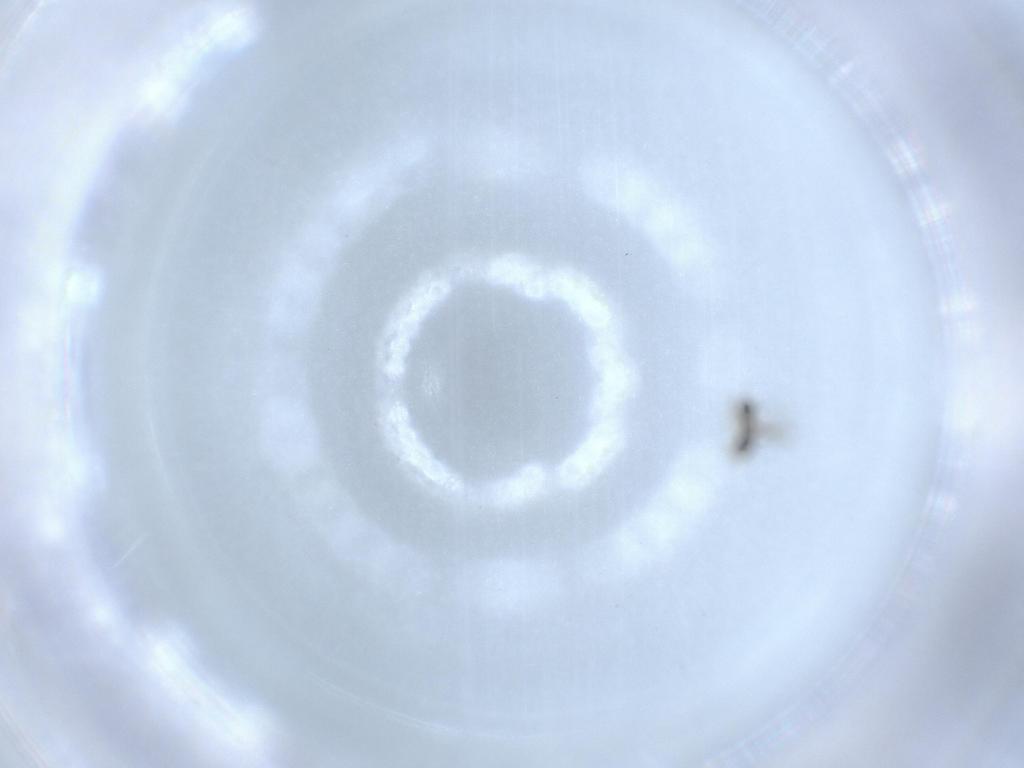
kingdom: Animalia
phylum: Arthropoda
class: Insecta
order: Hymenoptera
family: Aphelinidae
